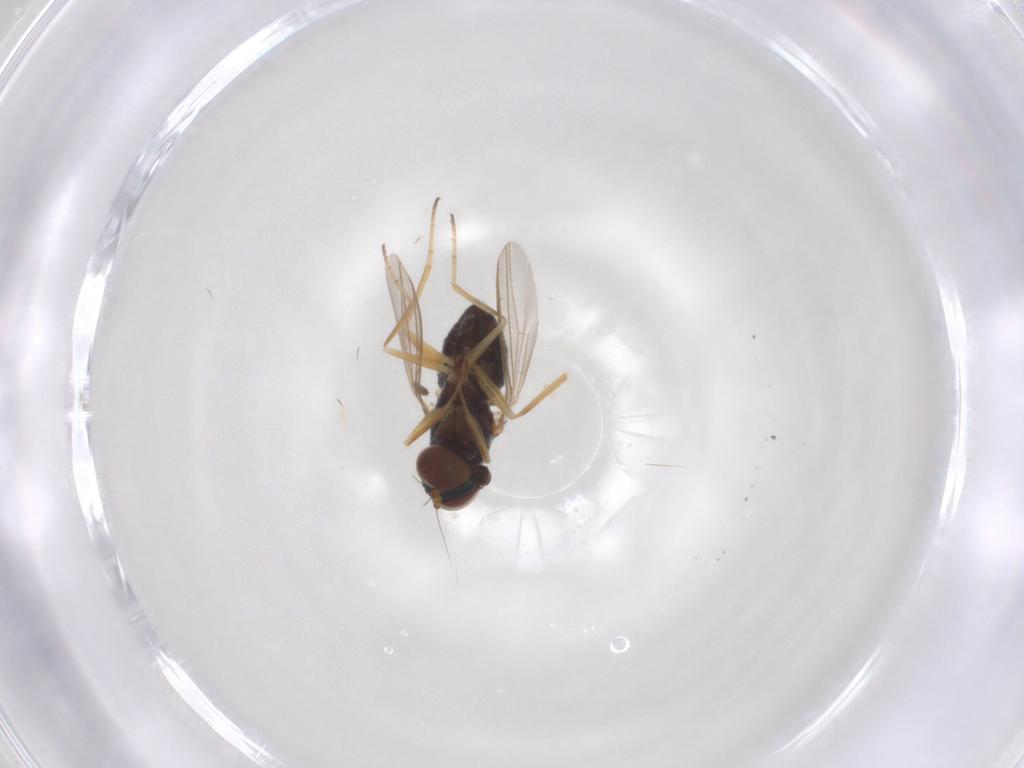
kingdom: Animalia
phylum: Arthropoda
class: Insecta
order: Diptera
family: Dolichopodidae
